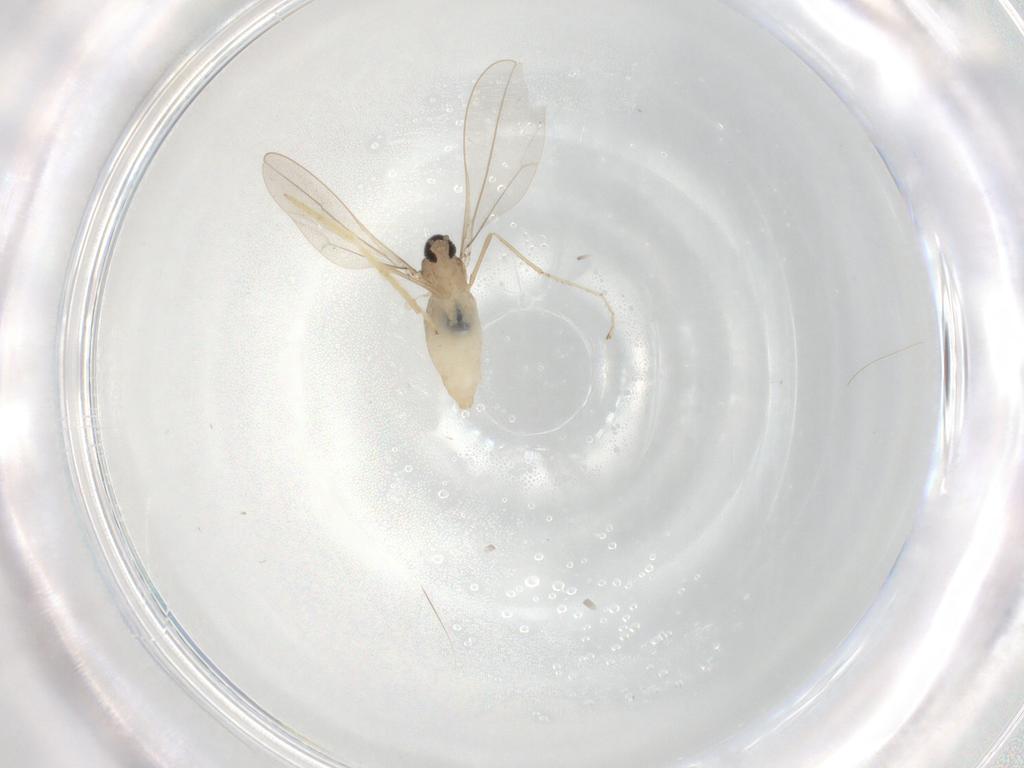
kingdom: Animalia
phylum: Arthropoda
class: Insecta
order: Diptera
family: Cecidomyiidae
